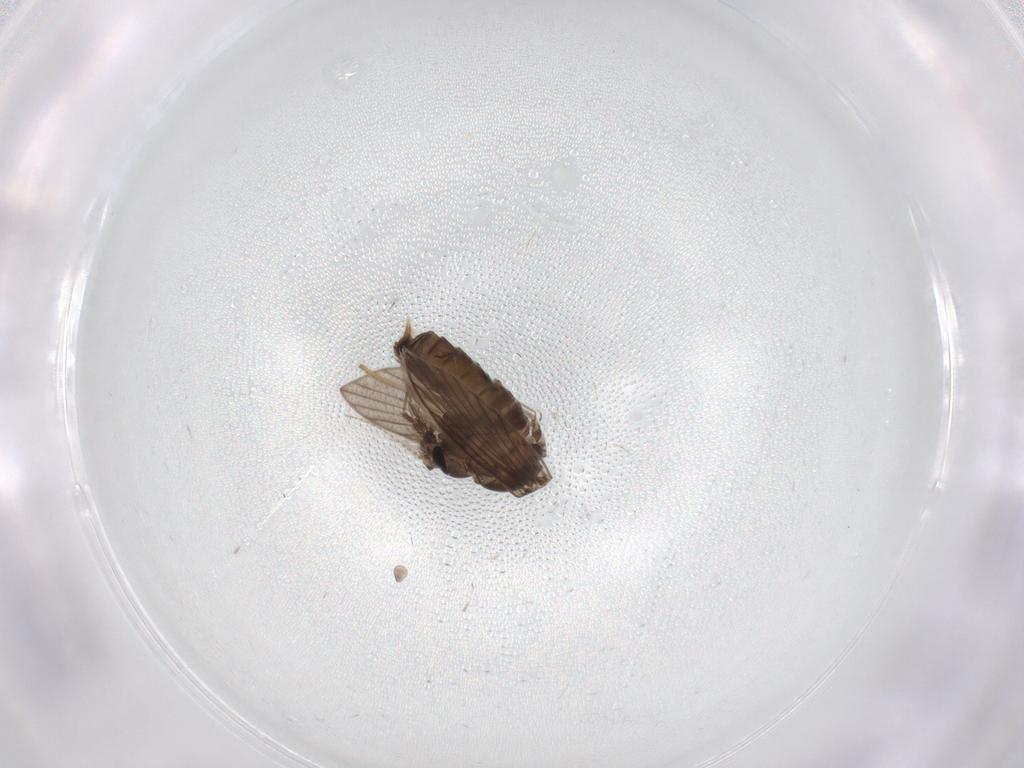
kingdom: Animalia
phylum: Arthropoda
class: Insecta
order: Diptera
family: Psychodidae
